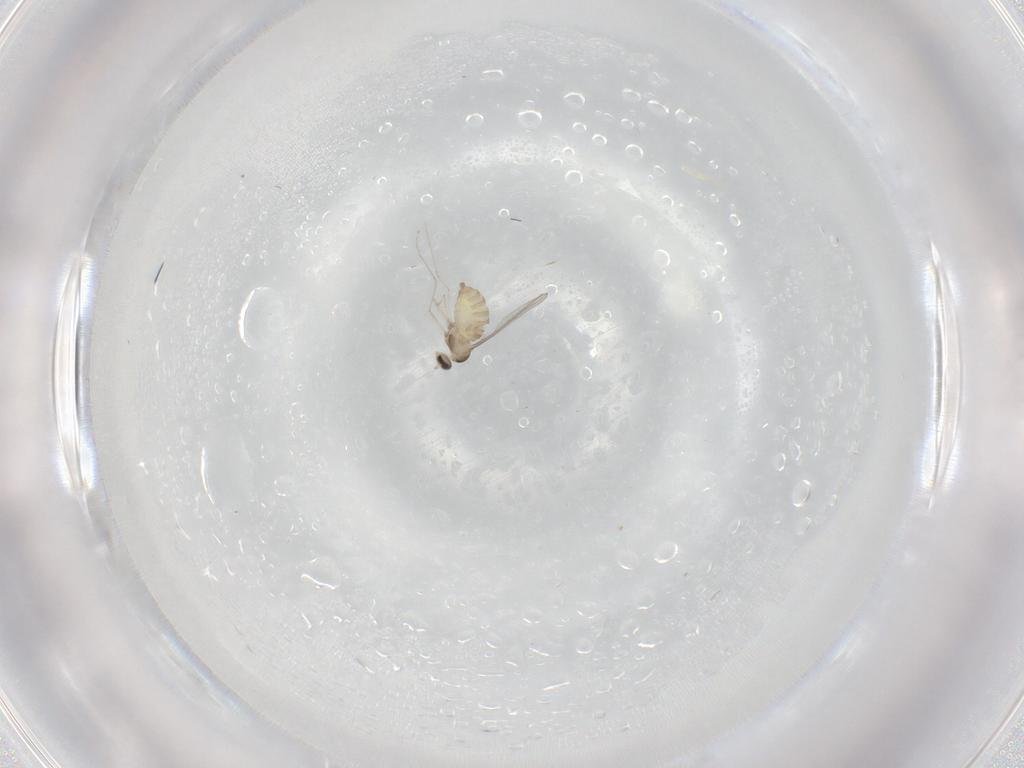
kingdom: Animalia
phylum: Arthropoda
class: Insecta
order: Diptera
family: Cecidomyiidae
